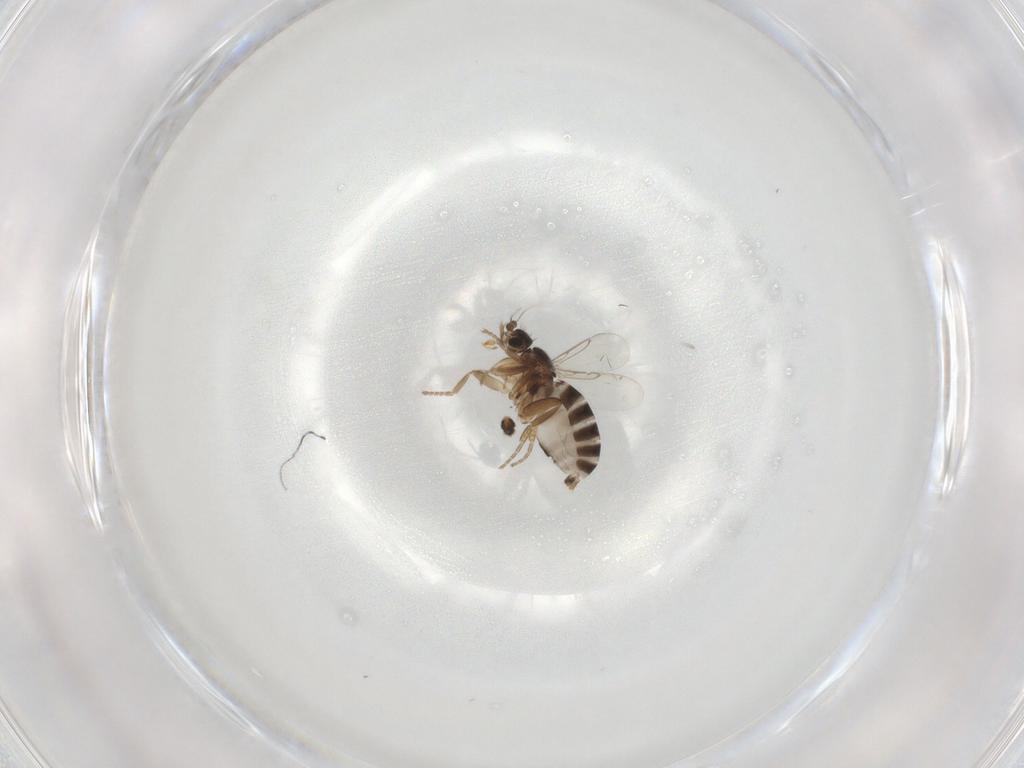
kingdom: Animalia
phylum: Arthropoda
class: Insecta
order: Diptera
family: Phoridae
